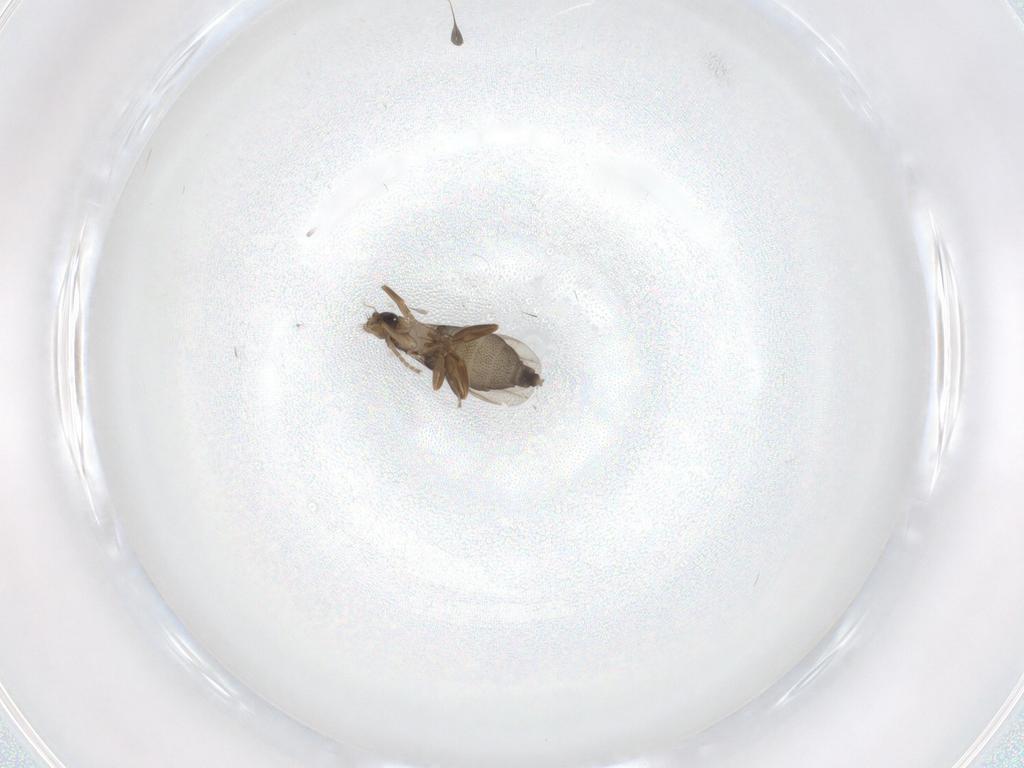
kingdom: Animalia
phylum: Arthropoda
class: Insecta
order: Diptera
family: Phoridae
